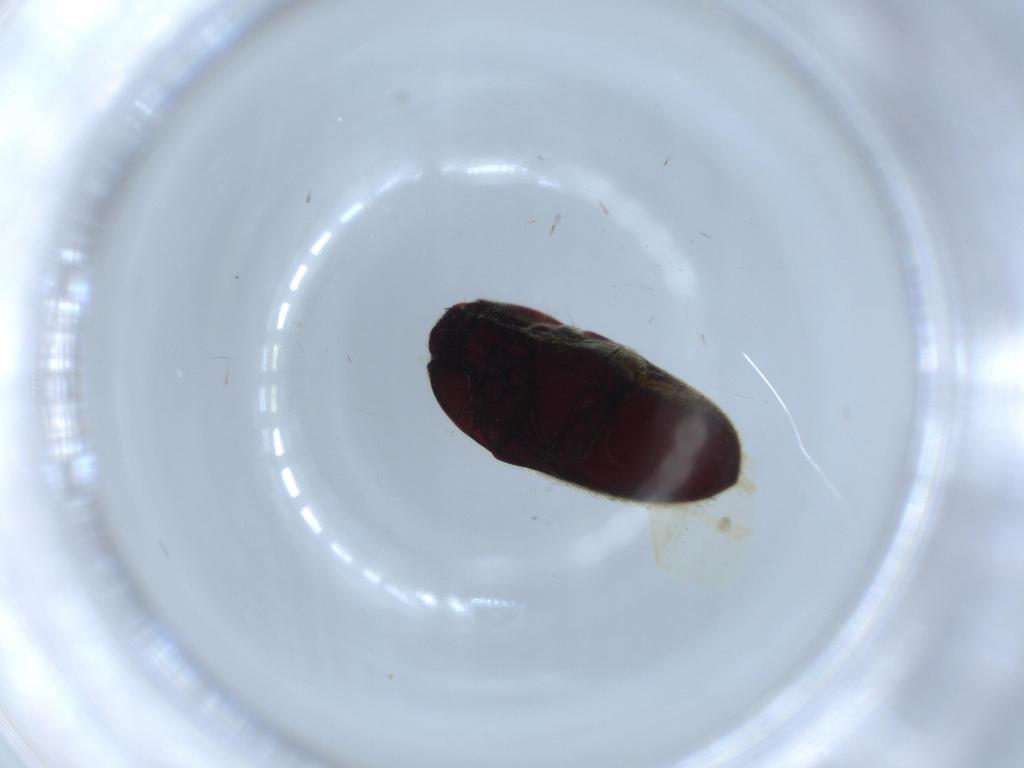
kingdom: Animalia
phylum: Arthropoda
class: Insecta
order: Coleoptera
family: Throscidae
